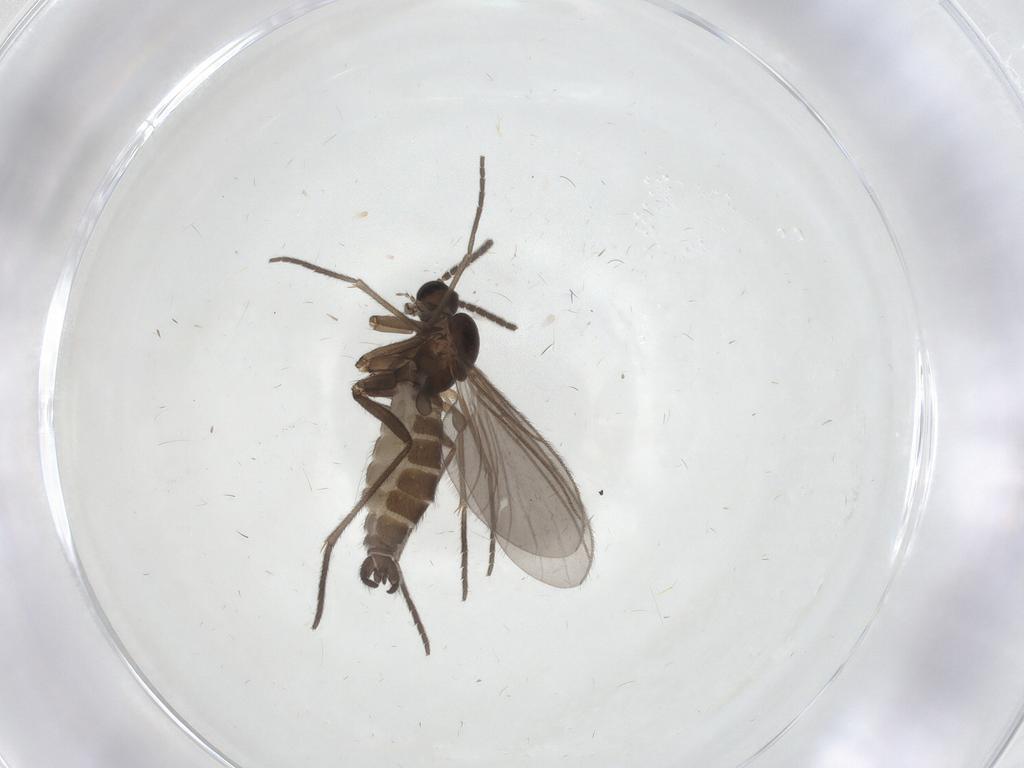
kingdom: Animalia
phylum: Arthropoda
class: Insecta
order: Diptera
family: Sciaridae
